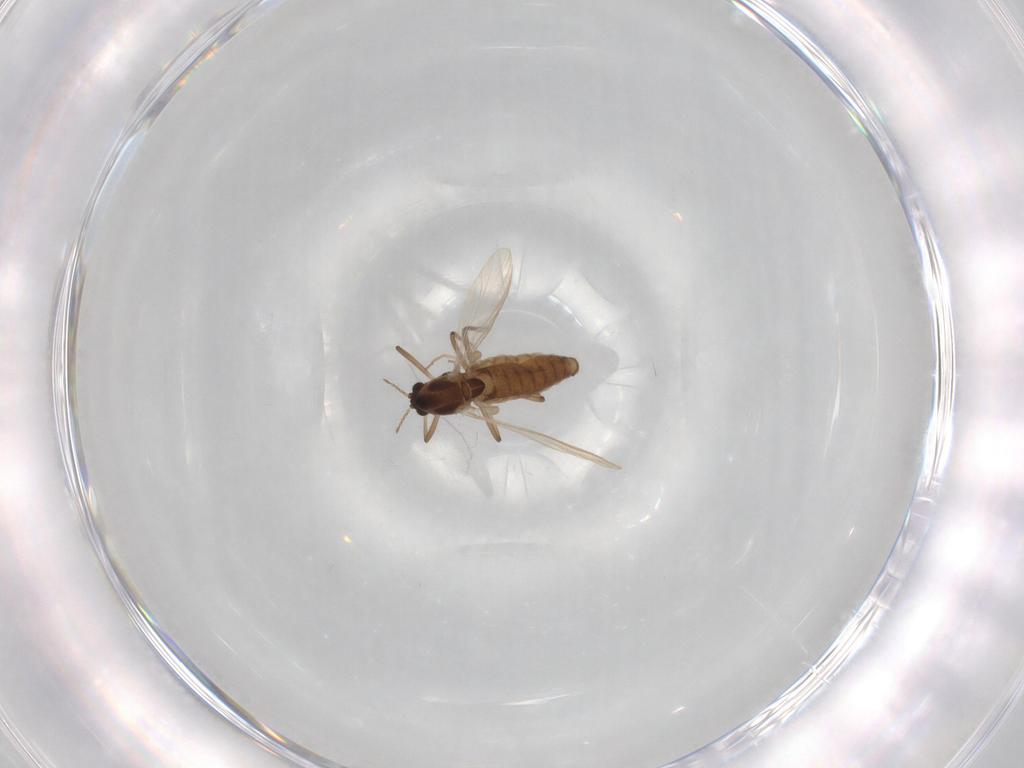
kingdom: Animalia
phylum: Arthropoda
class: Insecta
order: Diptera
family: Chironomidae
